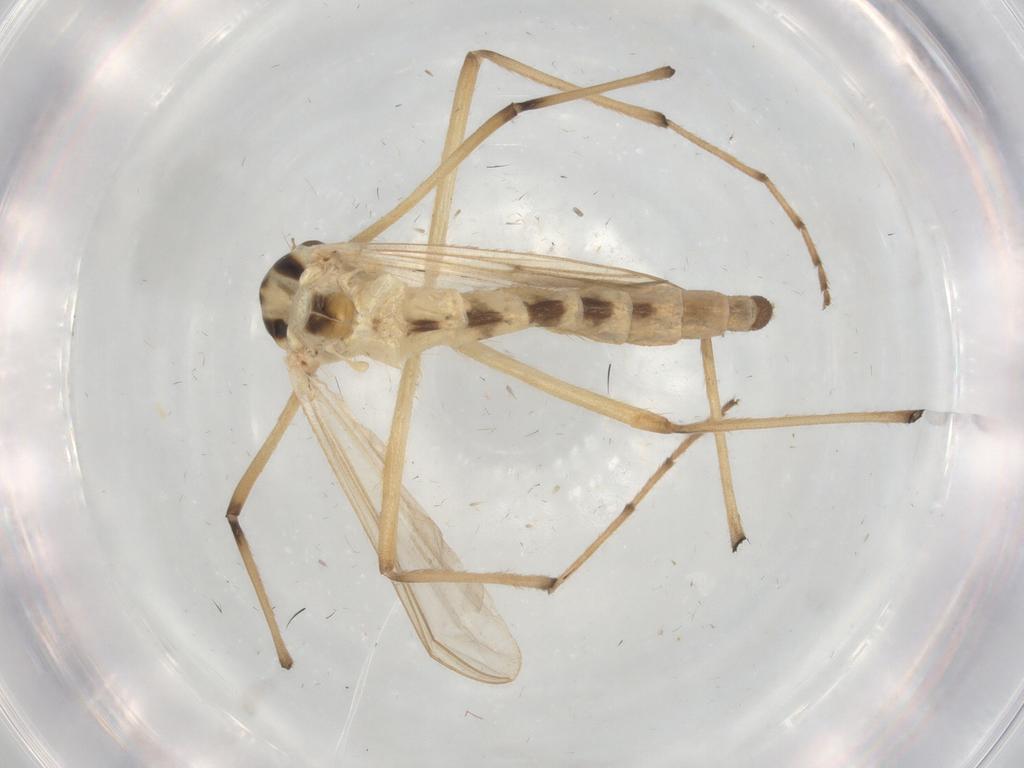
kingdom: Animalia
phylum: Arthropoda
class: Insecta
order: Diptera
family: Chironomidae
